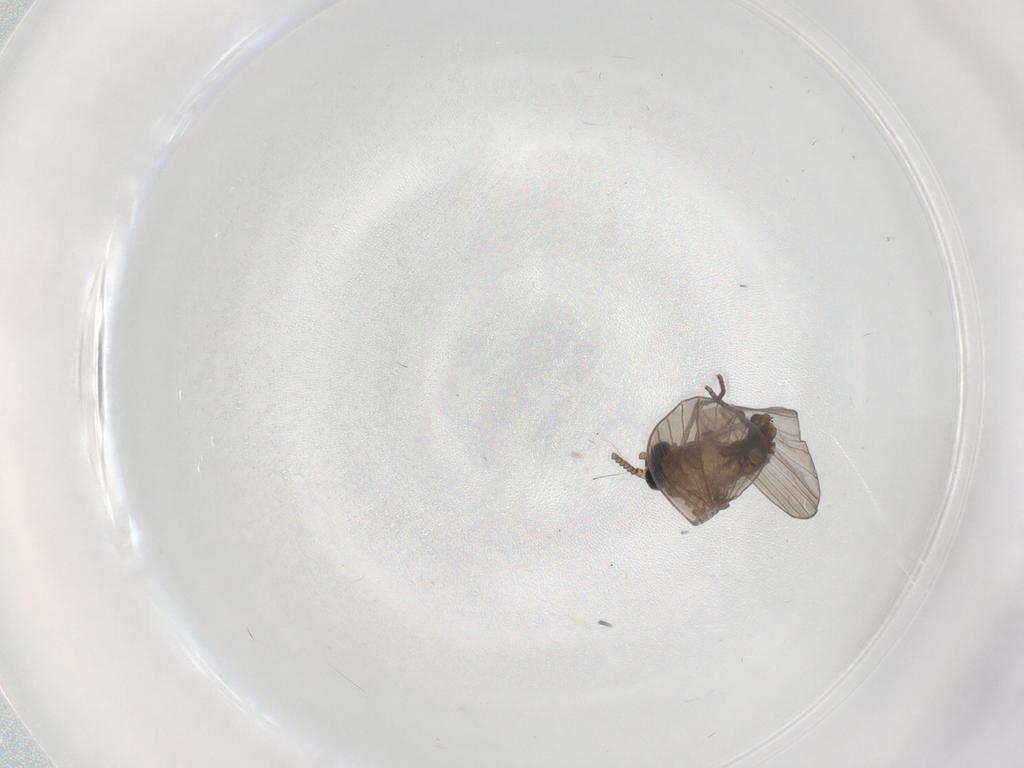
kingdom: Animalia
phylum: Arthropoda
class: Insecta
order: Diptera
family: Psychodidae
